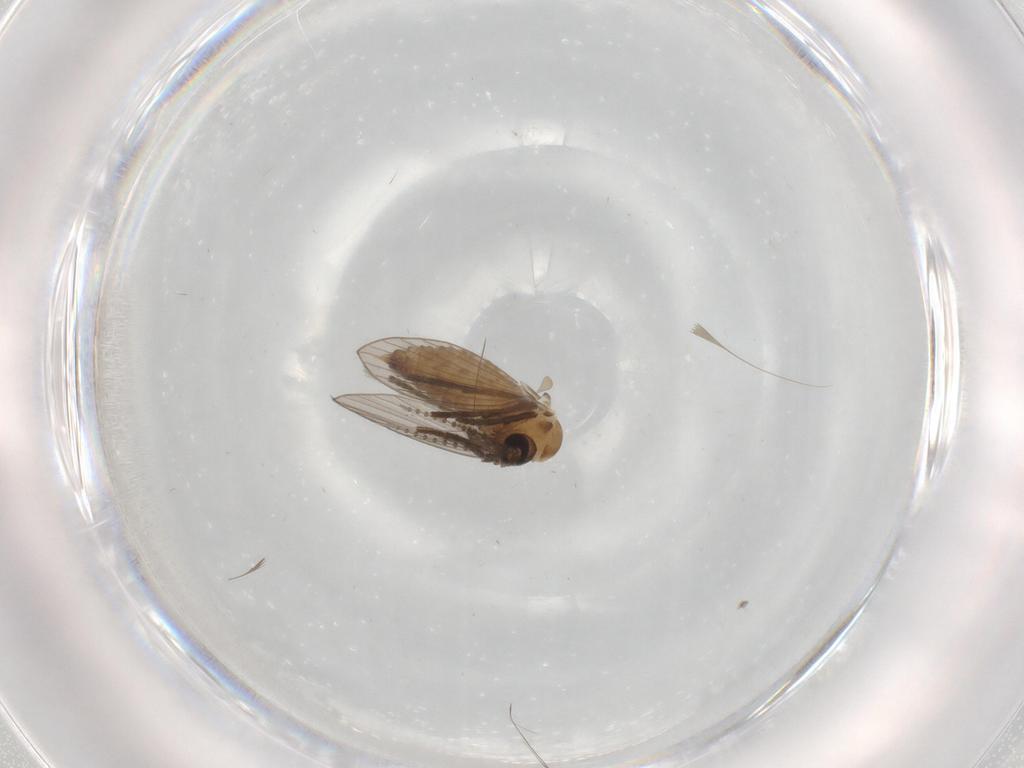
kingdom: Animalia
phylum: Arthropoda
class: Insecta
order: Diptera
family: Psychodidae
